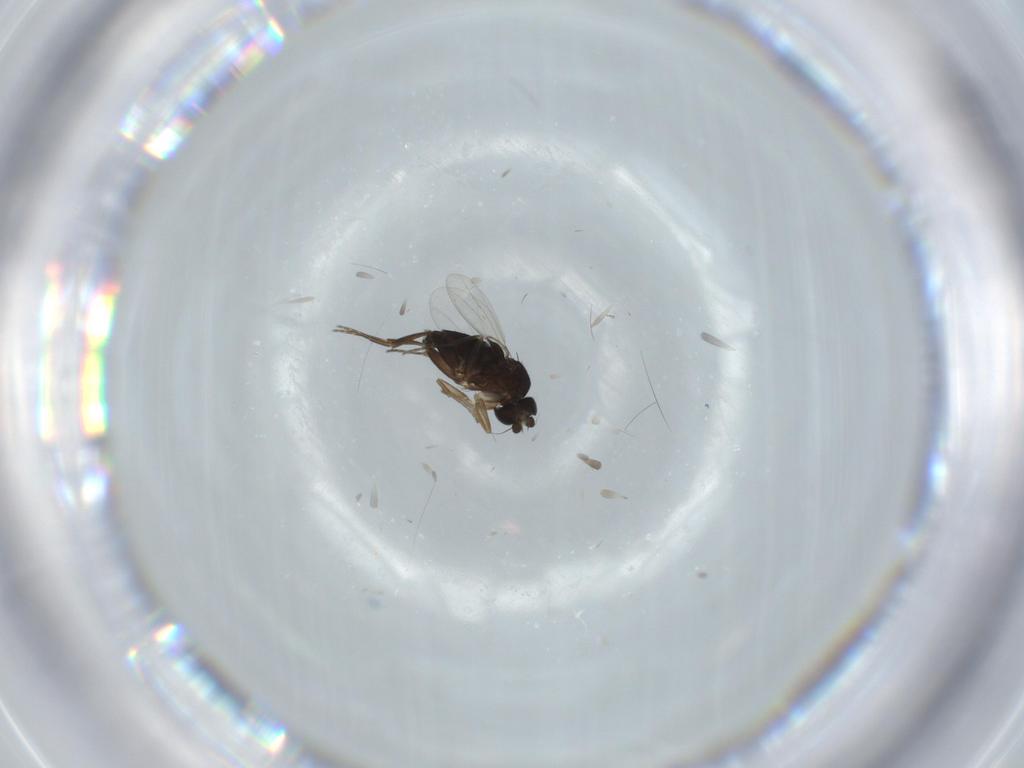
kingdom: Animalia
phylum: Arthropoda
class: Insecta
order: Diptera
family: Phoridae
